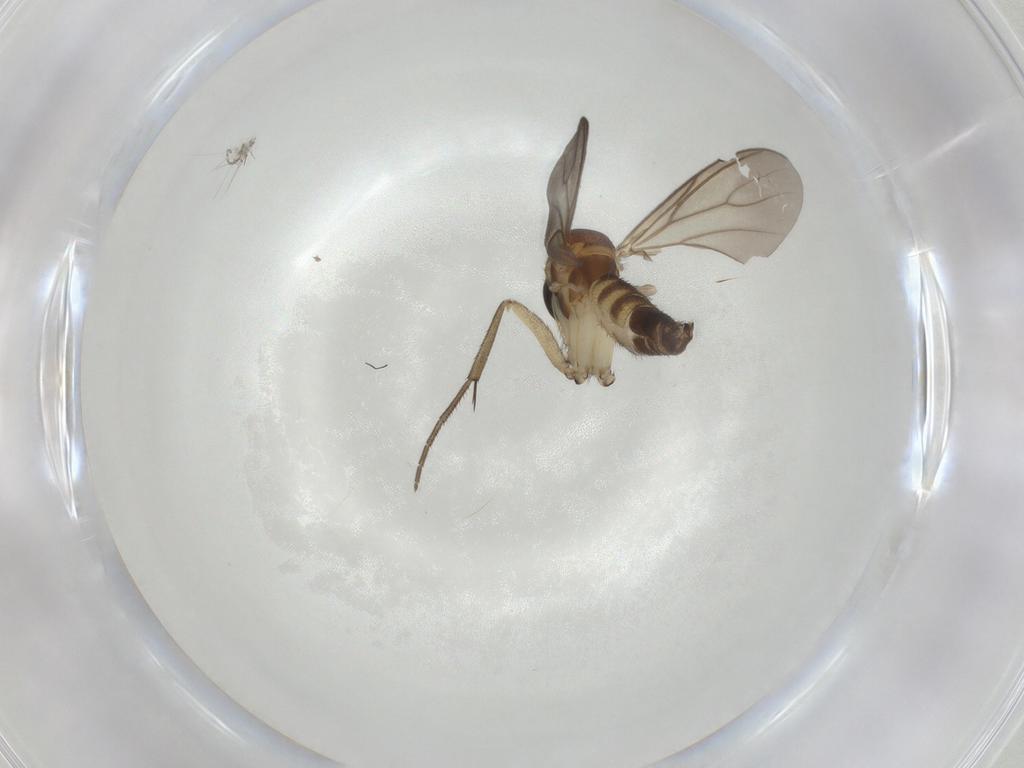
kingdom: Animalia
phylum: Arthropoda
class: Insecta
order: Diptera
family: Mycetophilidae
